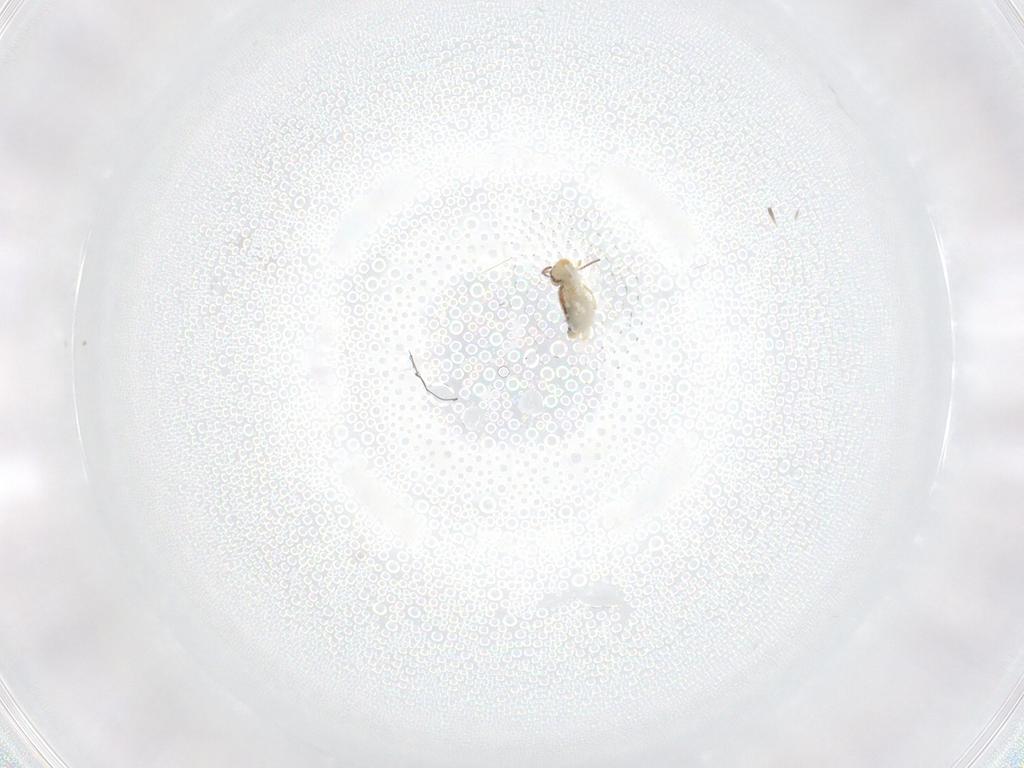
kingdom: Animalia
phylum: Arthropoda
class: Collembola
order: Symphypleona
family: Bourletiellidae
